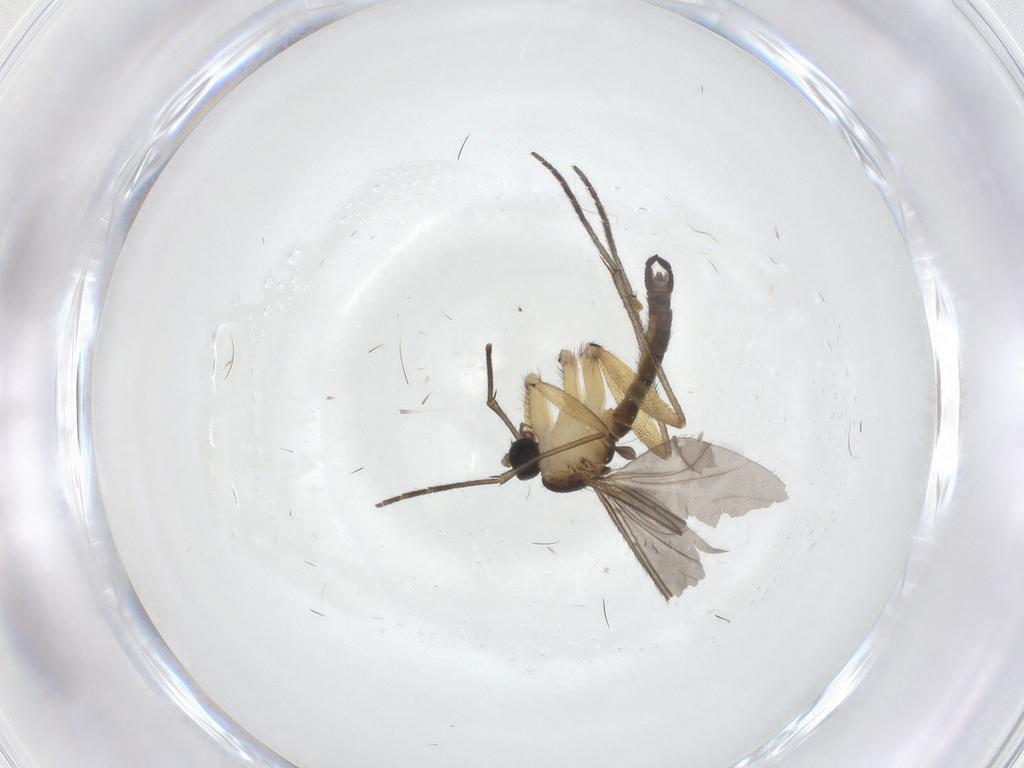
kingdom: Animalia
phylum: Arthropoda
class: Insecta
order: Diptera
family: Sciaridae
